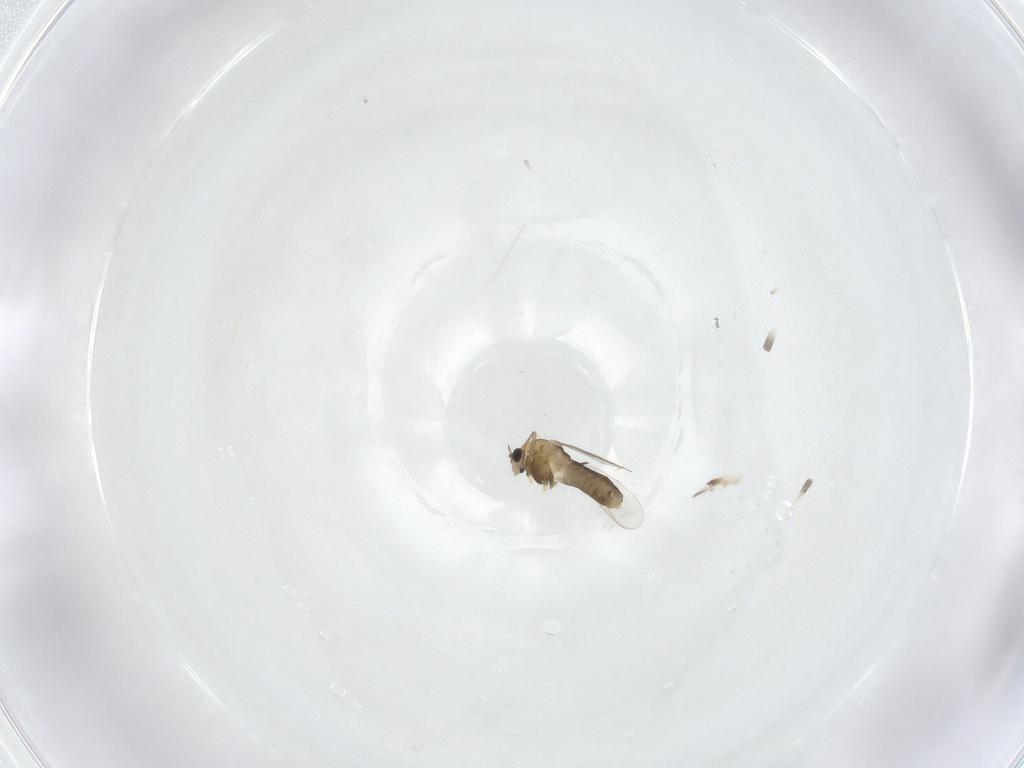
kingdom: Animalia
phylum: Arthropoda
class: Insecta
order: Diptera
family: Chironomidae
